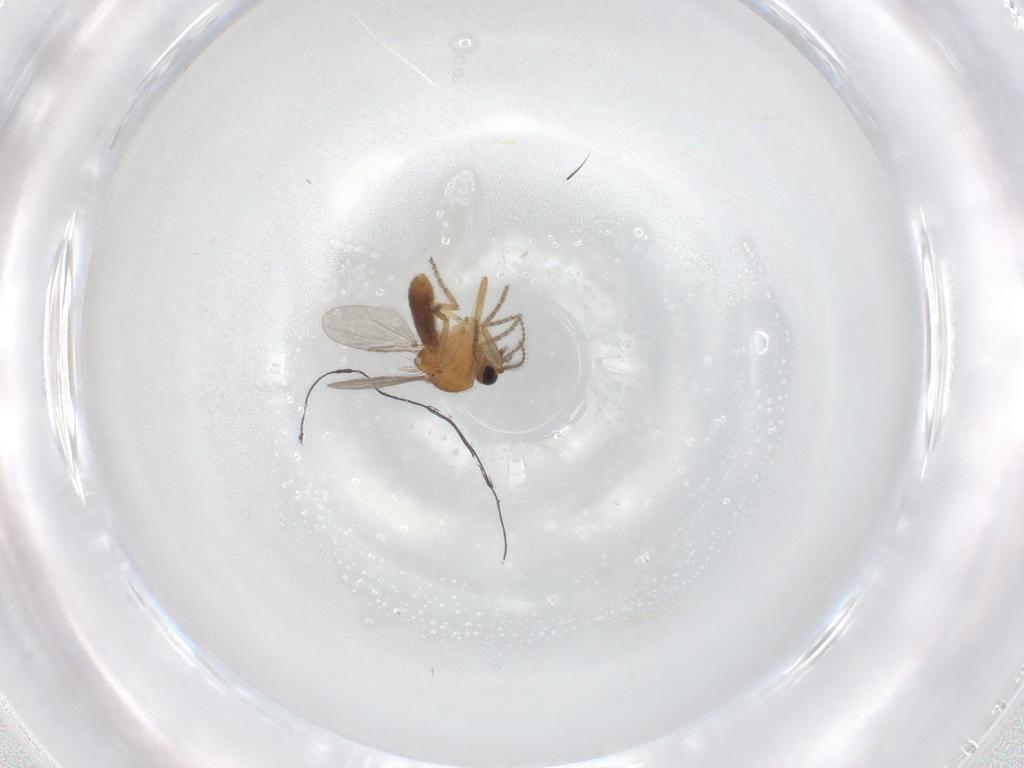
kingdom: Animalia
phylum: Arthropoda
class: Insecta
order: Diptera
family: Ceratopogonidae
